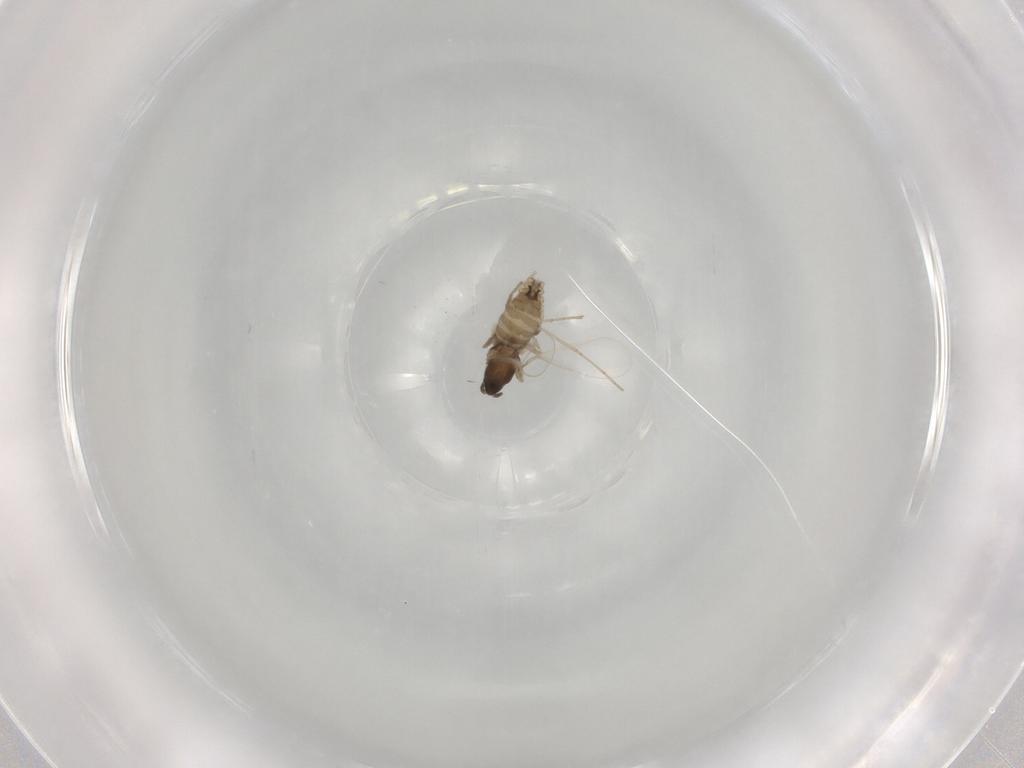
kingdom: Animalia
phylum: Arthropoda
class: Insecta
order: Diptera
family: Cecidomyiidae
